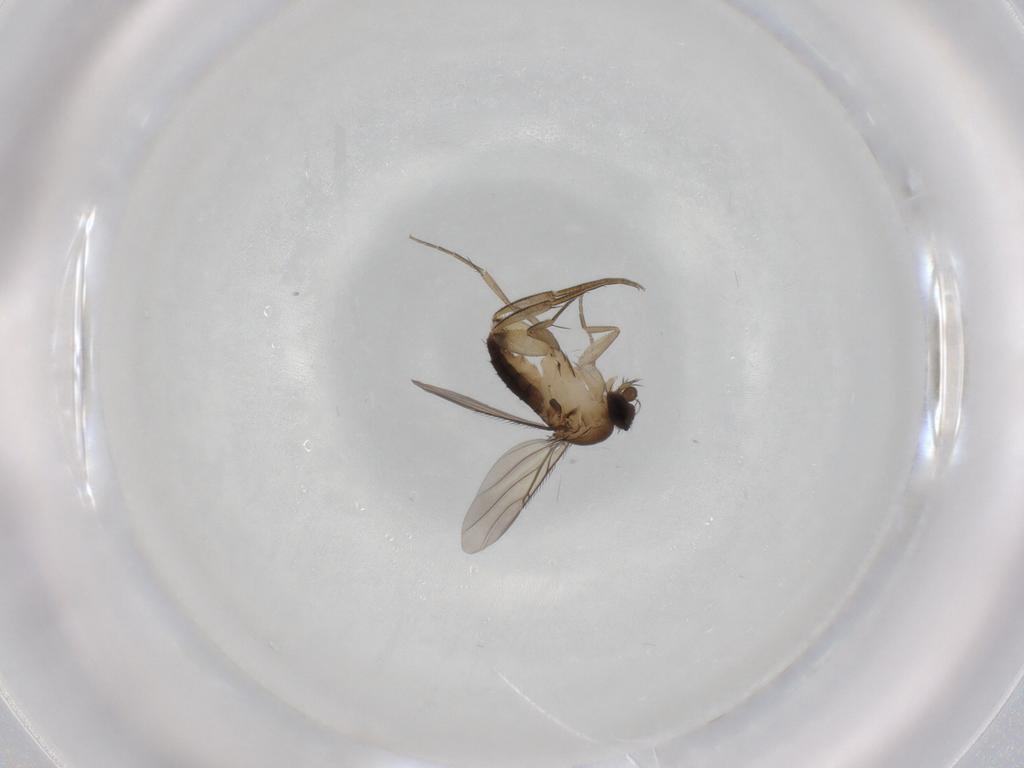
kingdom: Animalia
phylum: Arthropoda
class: Insecta
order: Diptera
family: Phoridae
